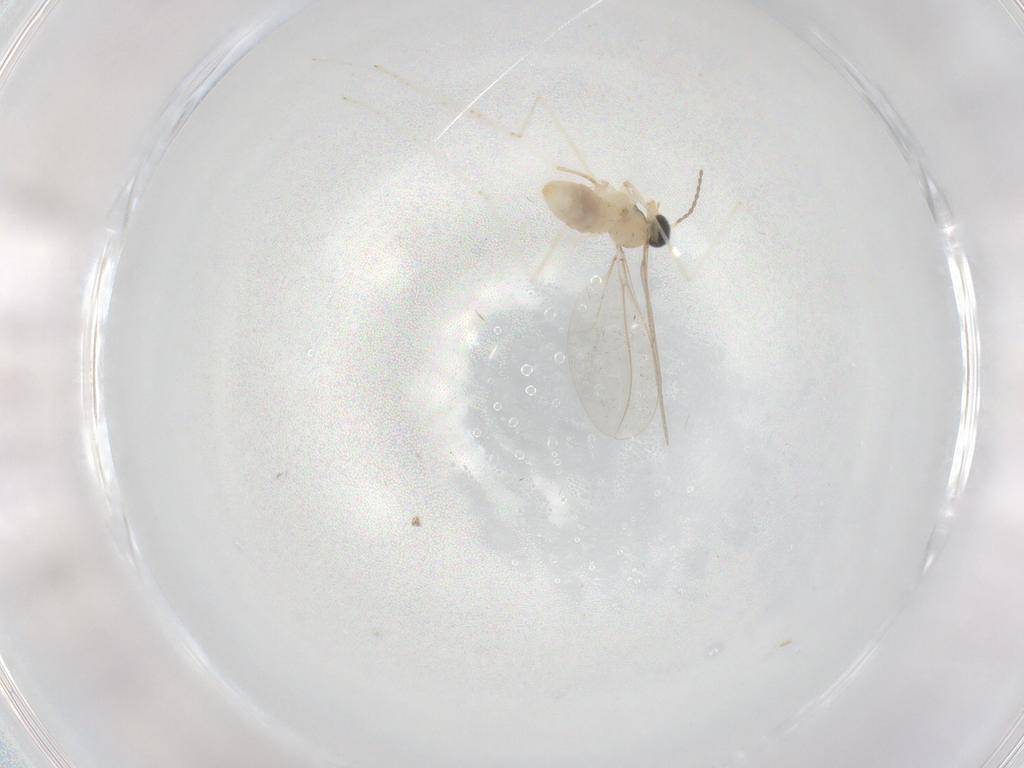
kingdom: Animalia
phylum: Arthropoda
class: Insecta
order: Diptera
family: Cecidomyiidae
